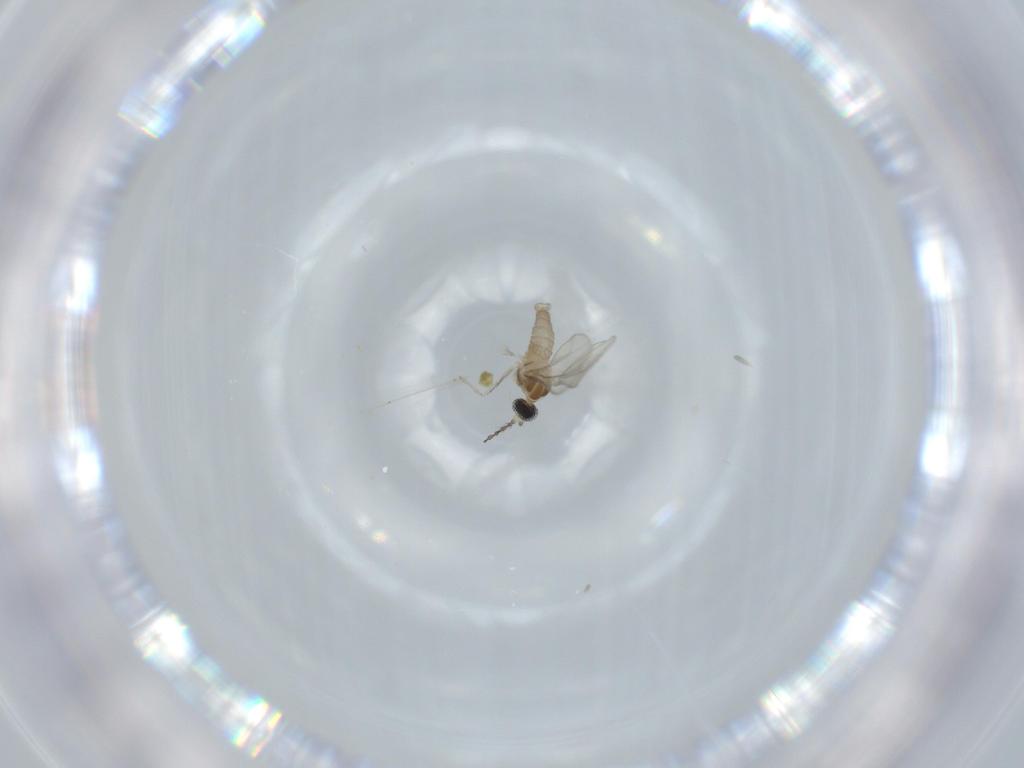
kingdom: Animalia
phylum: Arthropoda
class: Insecta
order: Diptera
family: Cecidomyiidae
